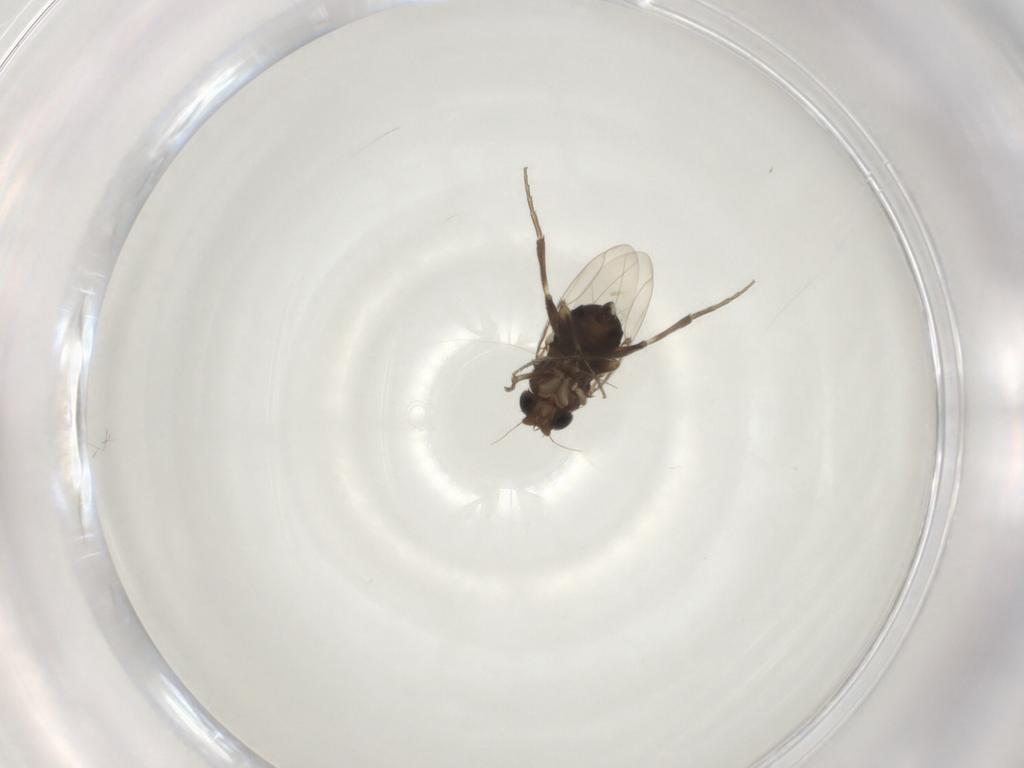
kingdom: Animalia
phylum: Arthropoda
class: Insecta
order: Diptera
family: Phoridae
